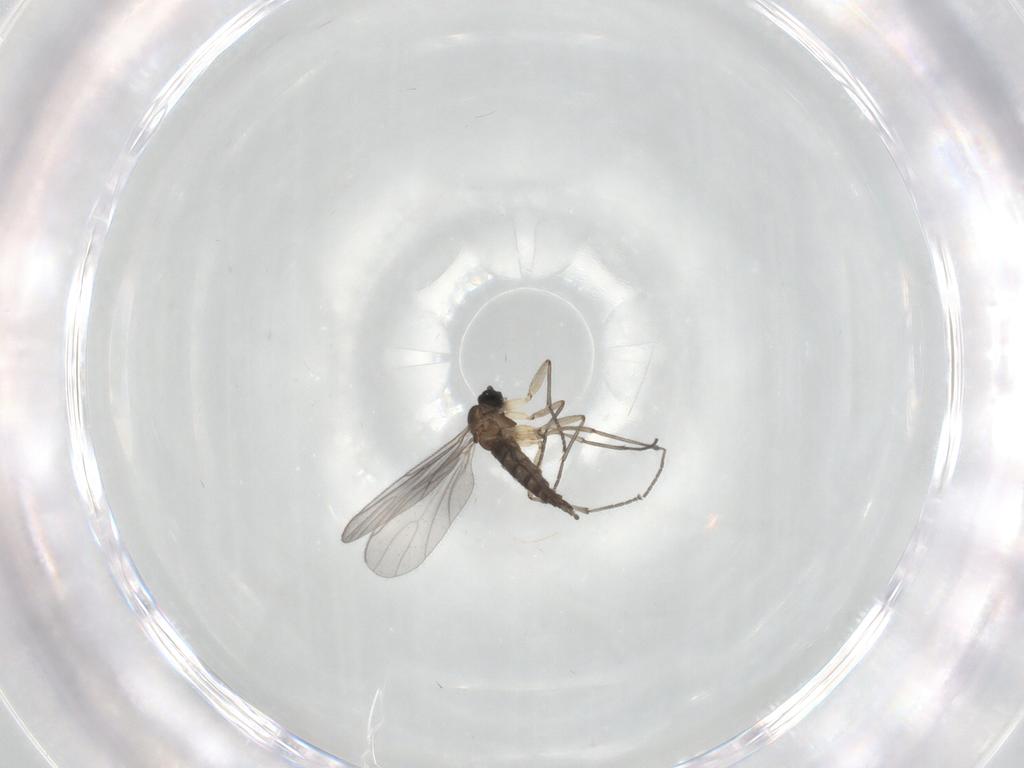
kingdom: Animalia
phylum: Arthropoda
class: Insecta
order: Diptera
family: Sciaridae
